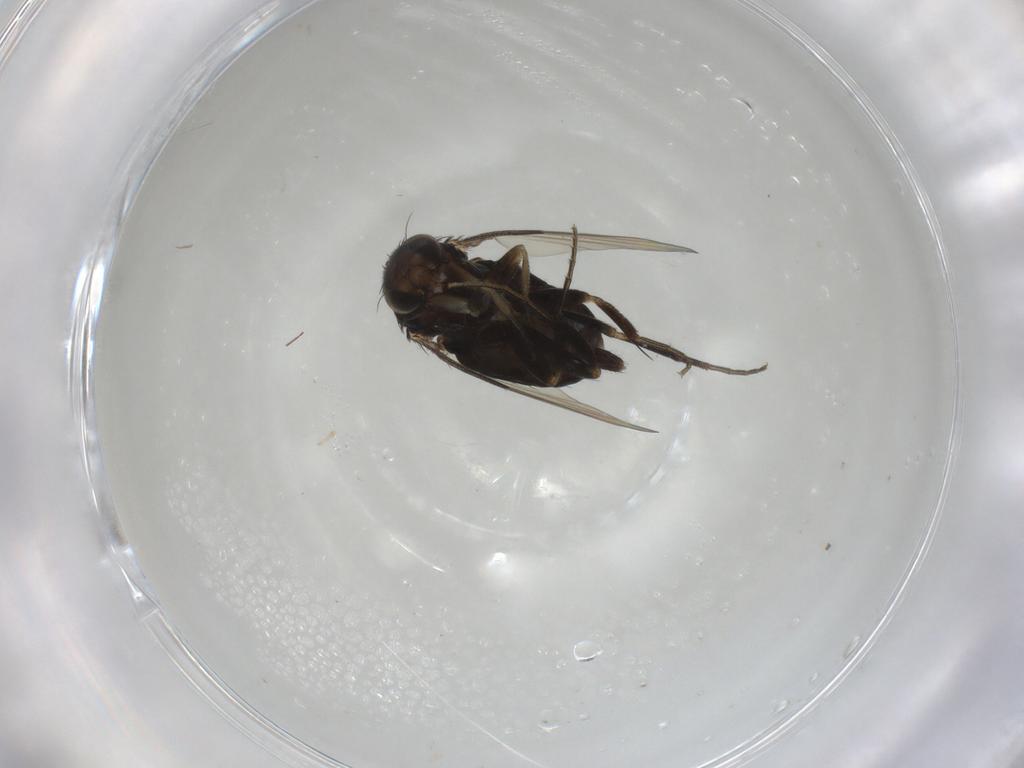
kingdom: Animalia
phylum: Arthropoda
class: Insecta
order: Diptera
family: Phoridae
